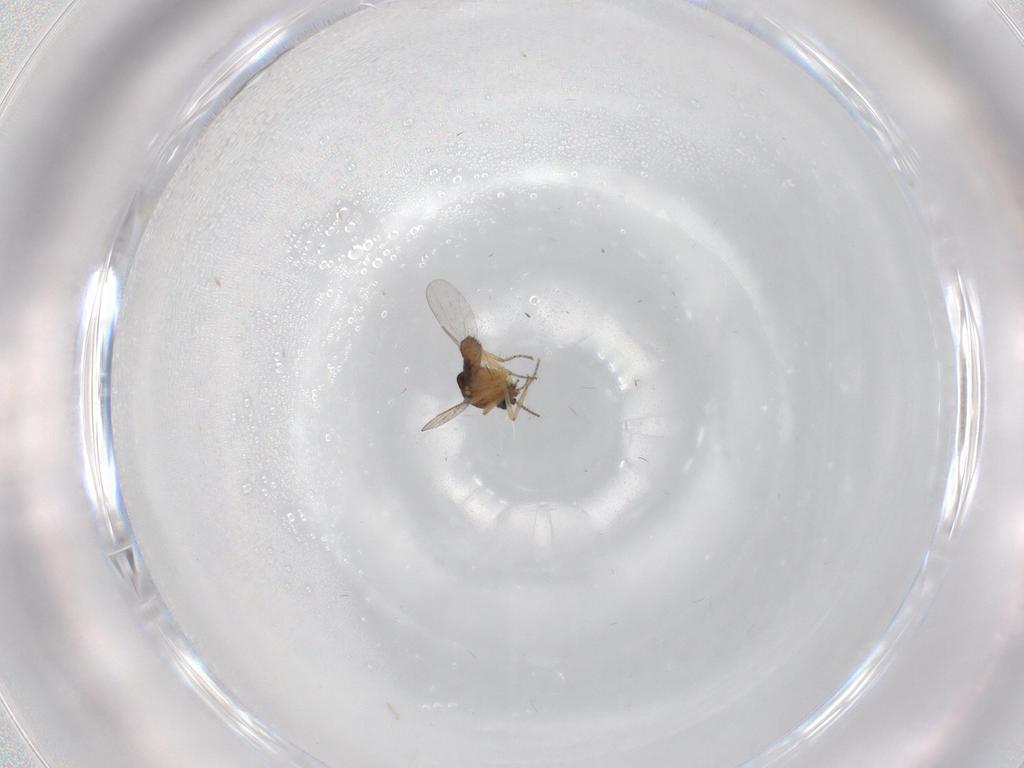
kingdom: Animalia
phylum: Arthropoda
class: Insecta
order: Diptera
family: Ceratopogonidae
